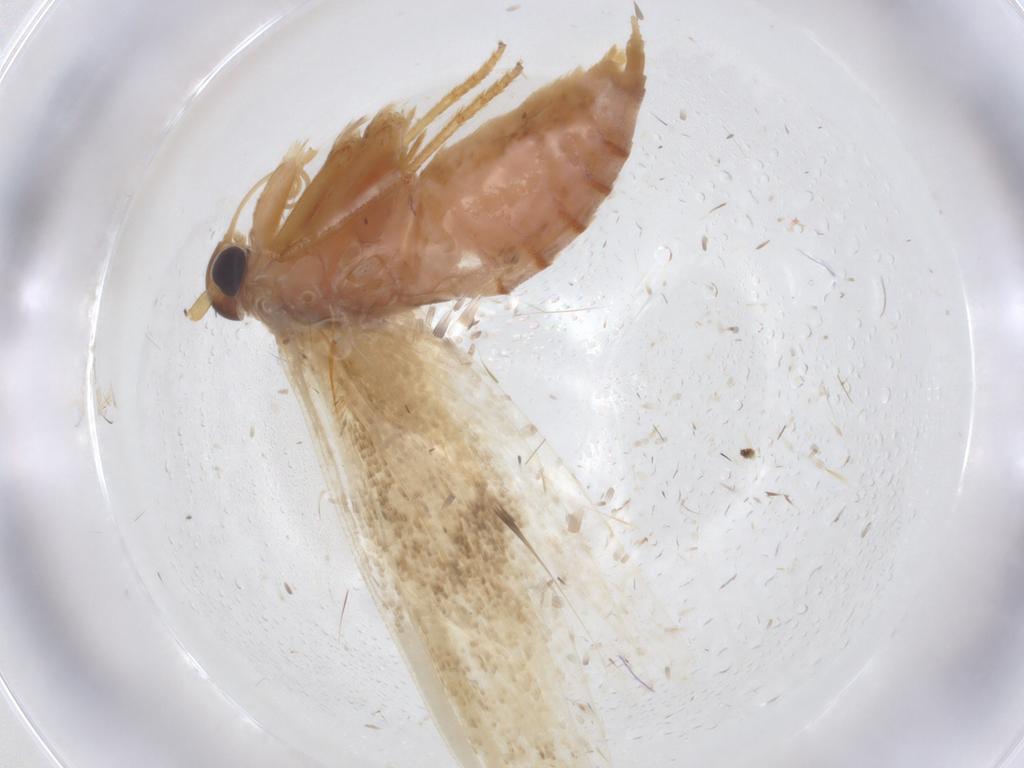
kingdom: Animalia
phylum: Arthropoda
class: Insecta
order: Lepidoptera
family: Blastobasidae
